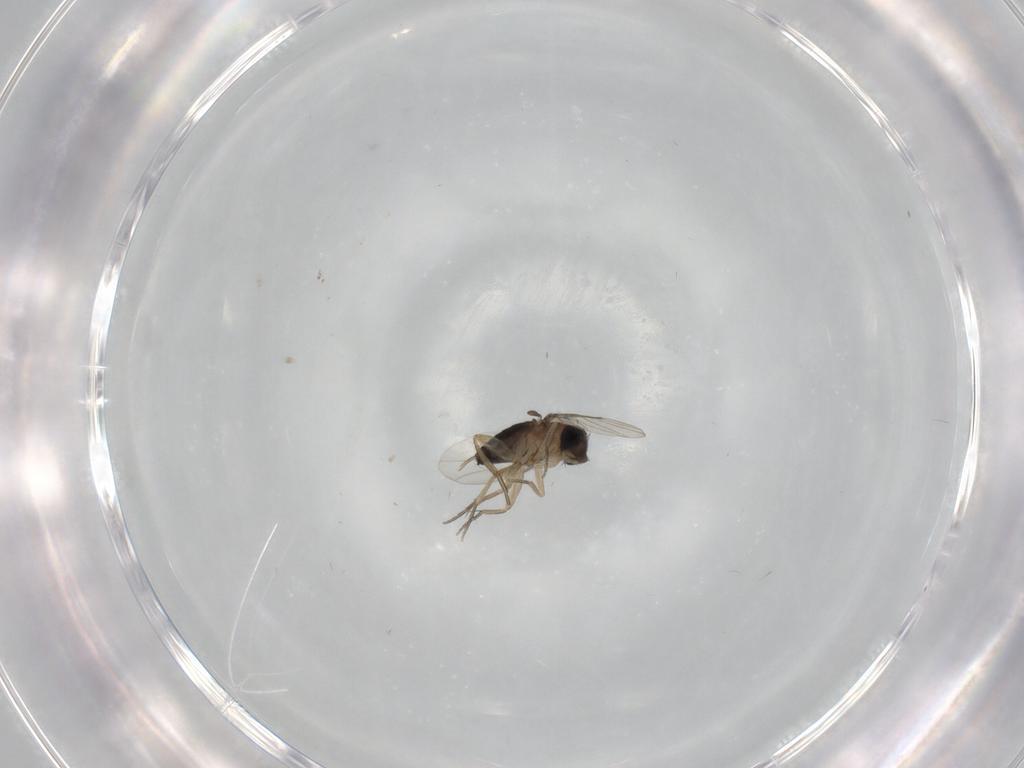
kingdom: Animalia
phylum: Arthropoda
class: Insecta
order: Diptera
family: Phoridae
